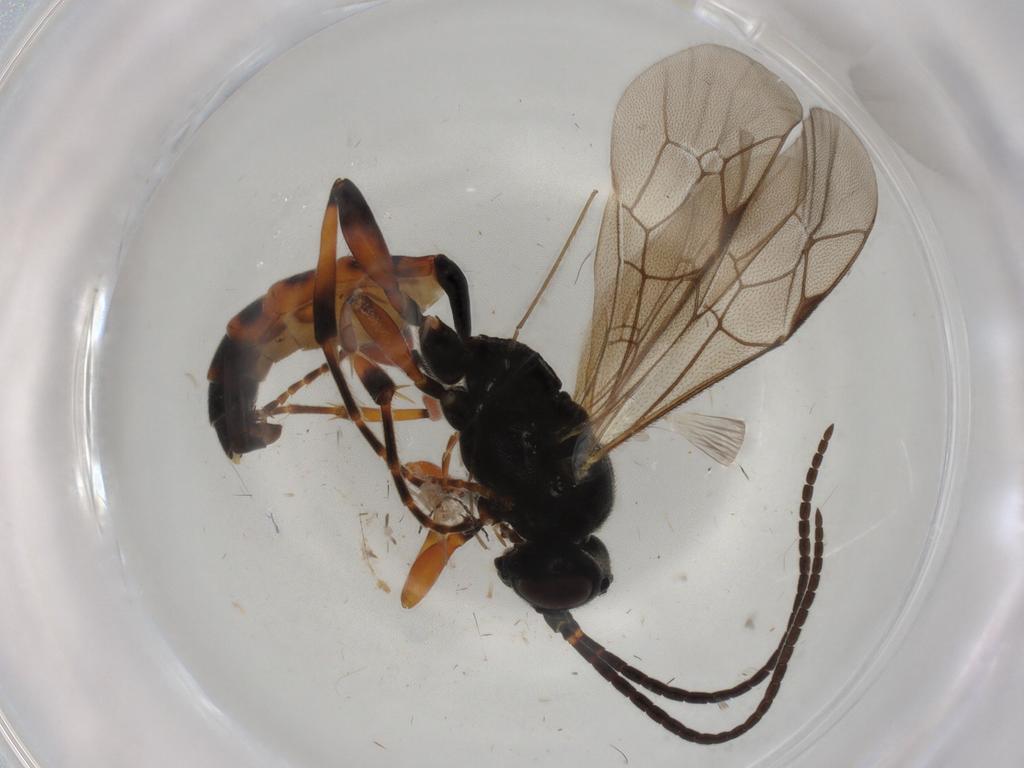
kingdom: Animalia
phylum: Arthropoda
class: Insecta
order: Hymenoptera
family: Ichneumonidae
